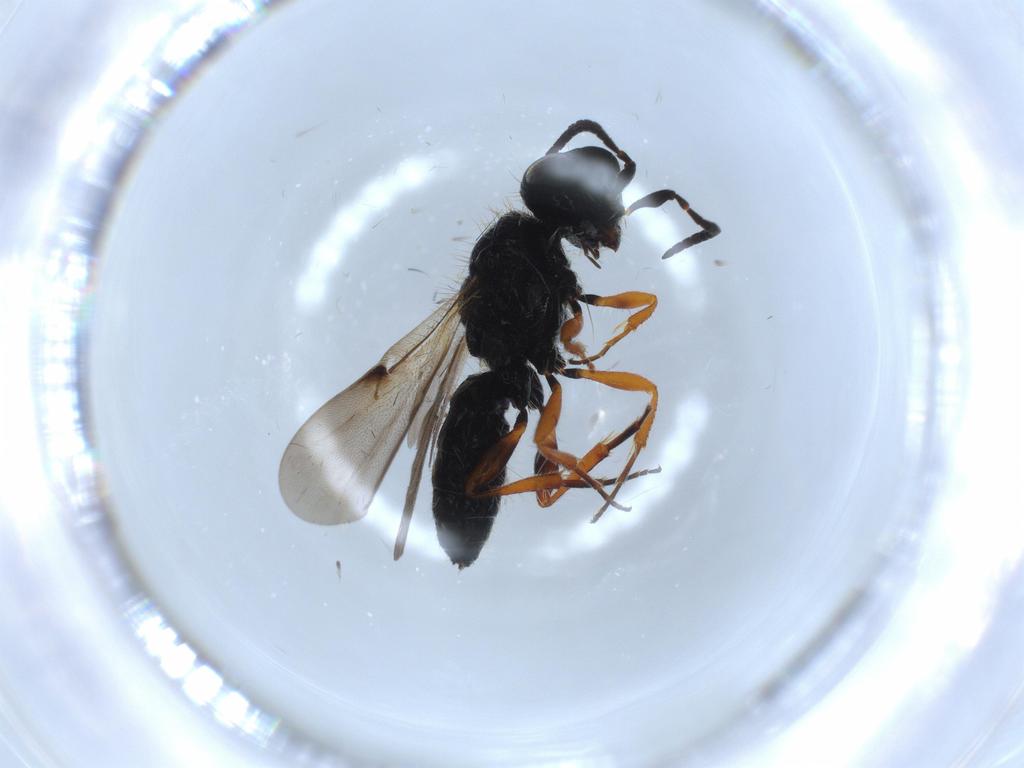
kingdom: Animalia
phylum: Arthropoda
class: Insecta
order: Hymenoptera
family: Scelionidae
